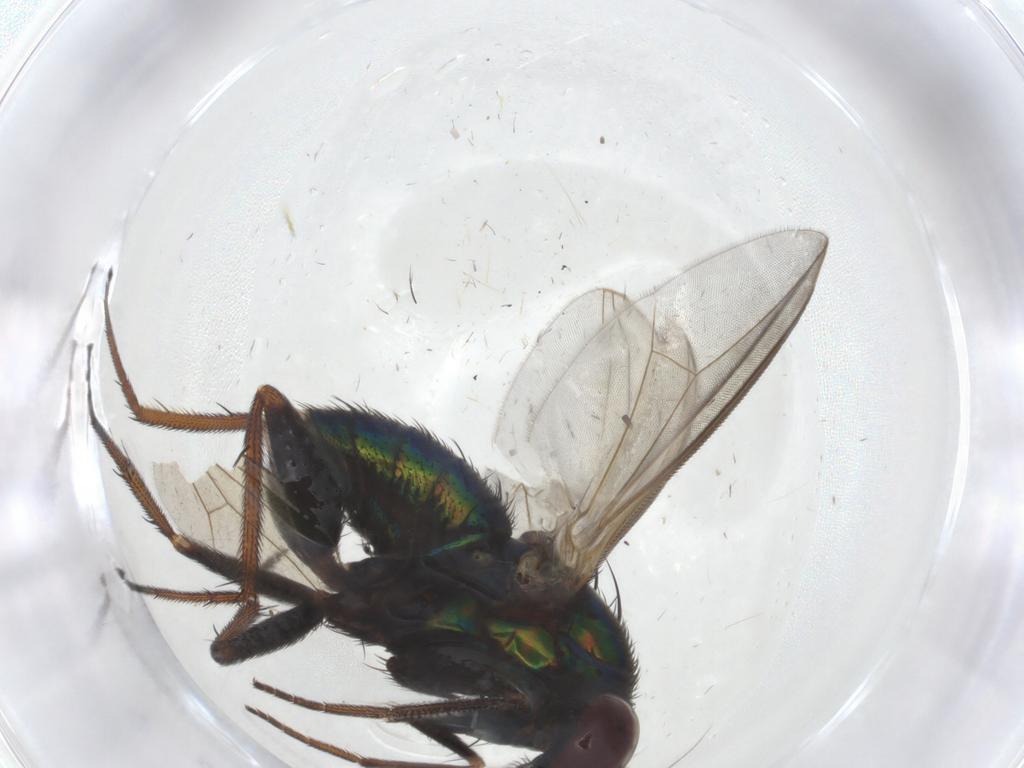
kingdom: Animalia
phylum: Arthropoda
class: Insecta
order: Diptera
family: Dolichopodidae
